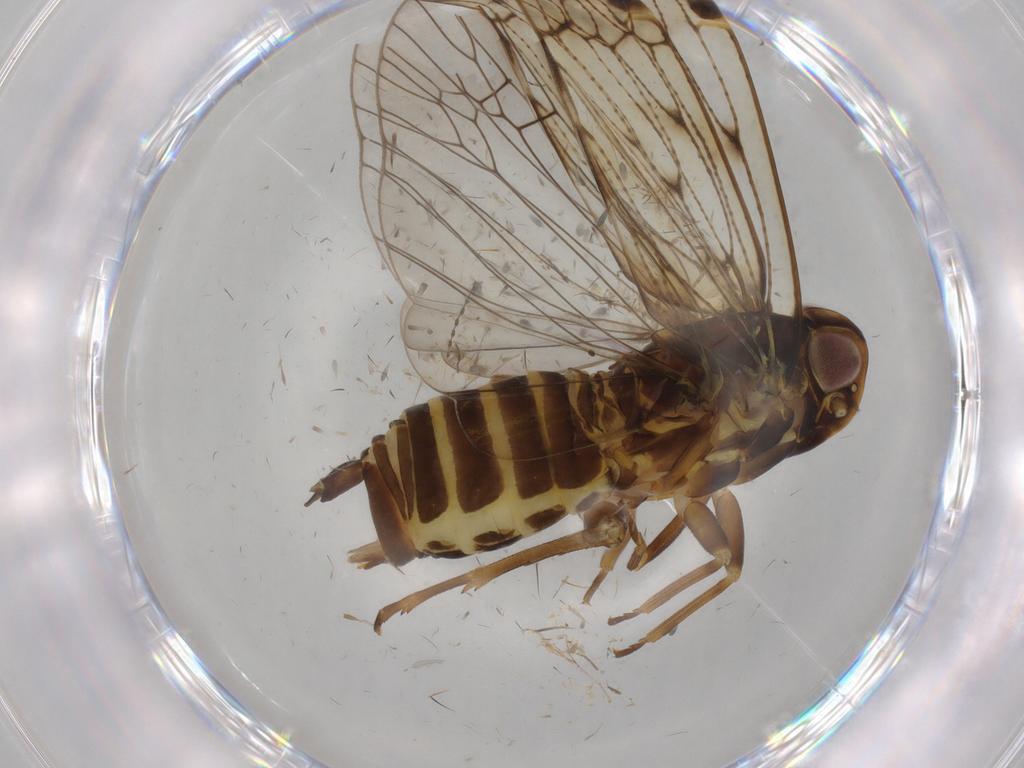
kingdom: Animalia
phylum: Arthropoda
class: Insecta
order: Hemiptera
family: Cixiidae
